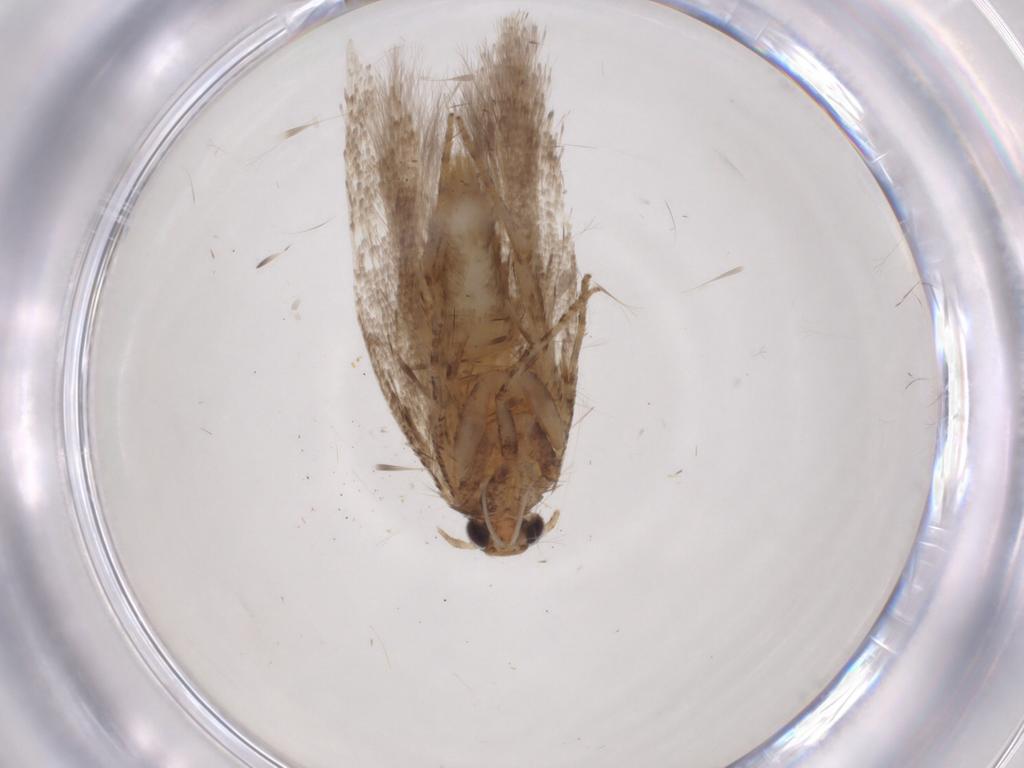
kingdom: Animalia
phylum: Arthropoda
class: Insecta
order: Lepidoptera
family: Gelechiidae
